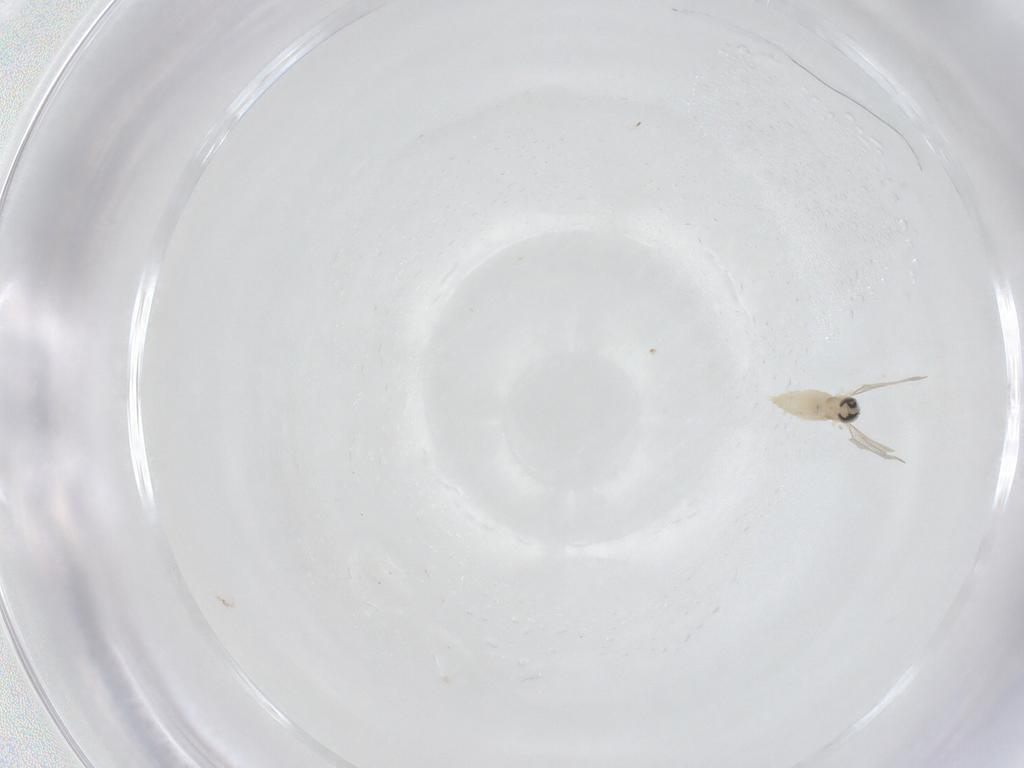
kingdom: Animalia
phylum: Arthropoda
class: Insecta
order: Diptera
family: Cecidomyiidae
